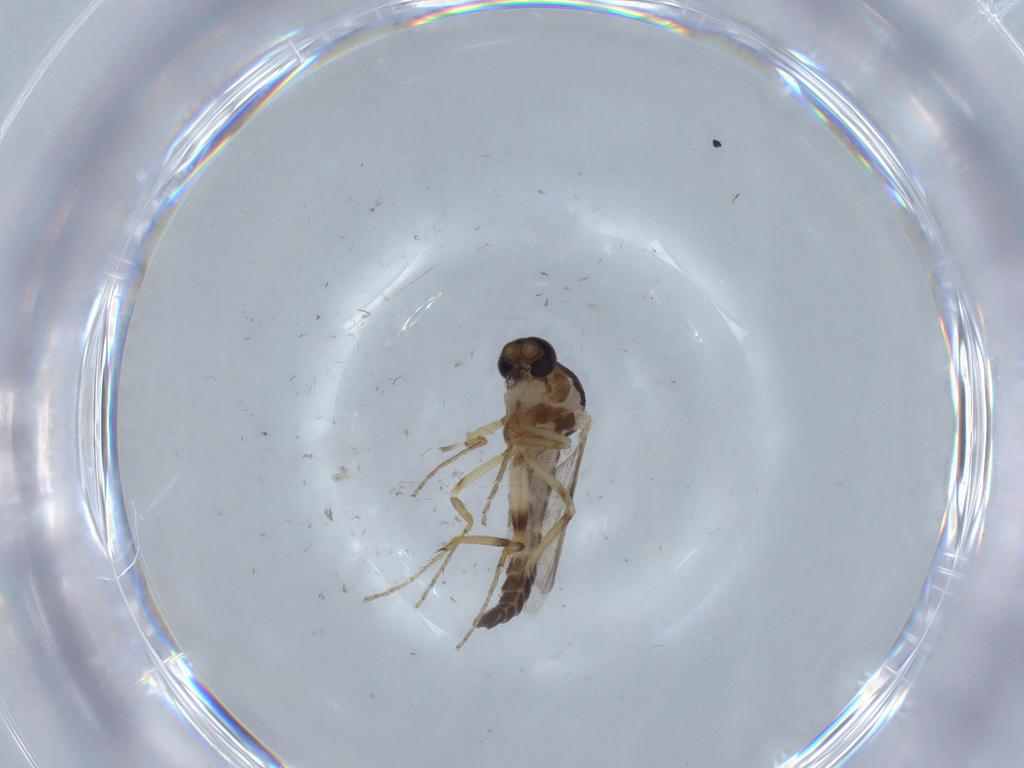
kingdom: Animalia
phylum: Arthropoda
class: Insecta
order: Diptera
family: Ceratopogonidae
